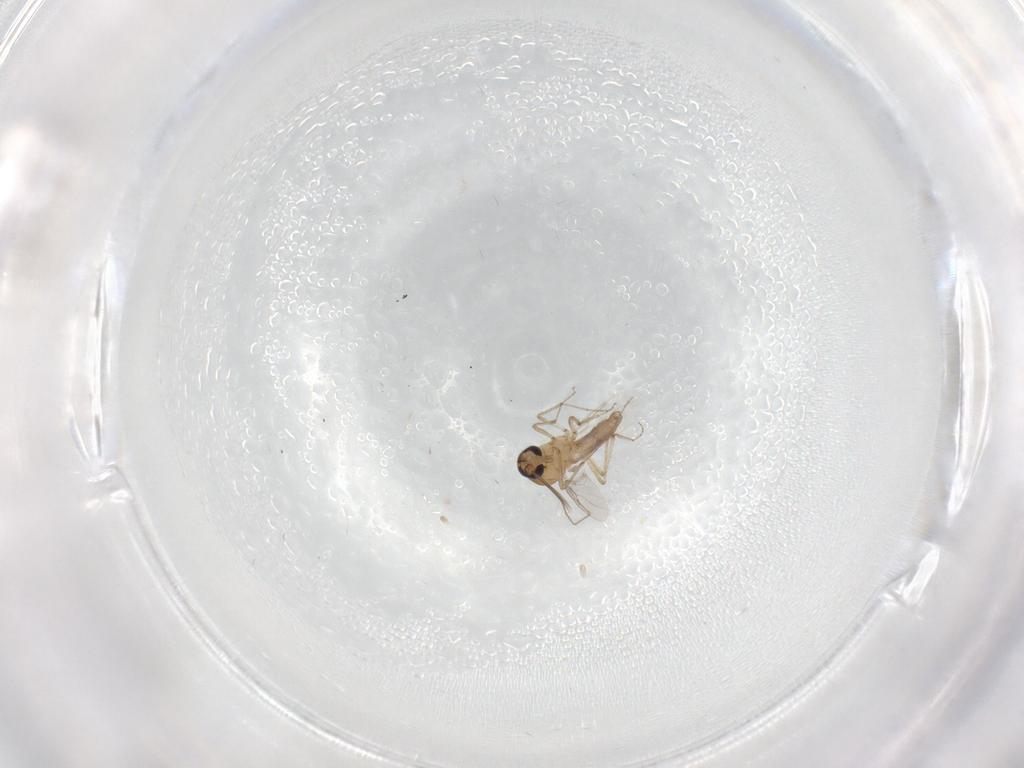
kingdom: Animalia
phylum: Arthropoda
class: Insecta
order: Diptera
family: Ceratopogonidae
